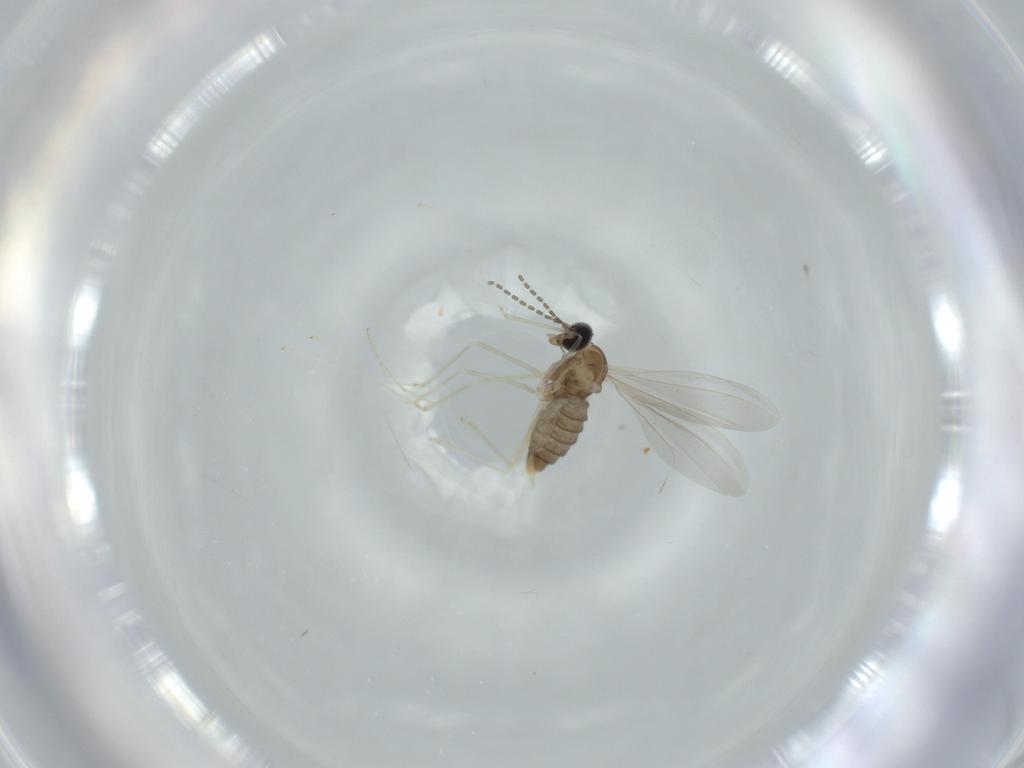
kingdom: Animalia
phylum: Arthropoda
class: Insecta
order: Diptera
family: Cecidomyiidae
